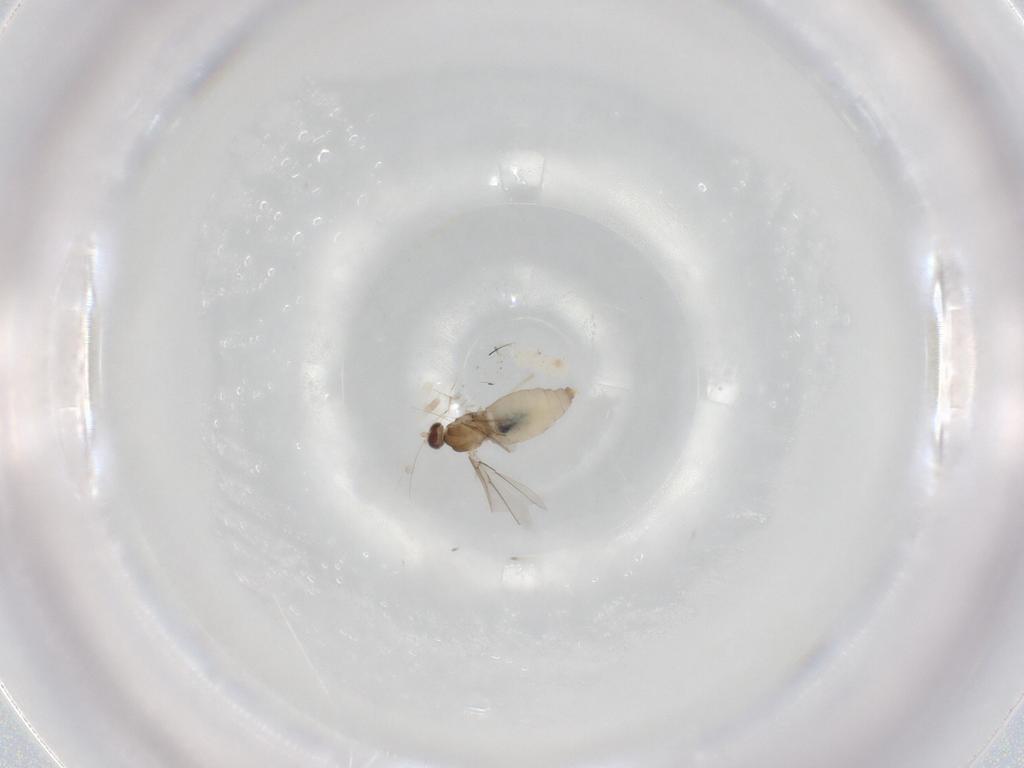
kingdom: Animalia
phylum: Arthropoda
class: Insecta
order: Diptera
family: Cecidomyiidae
